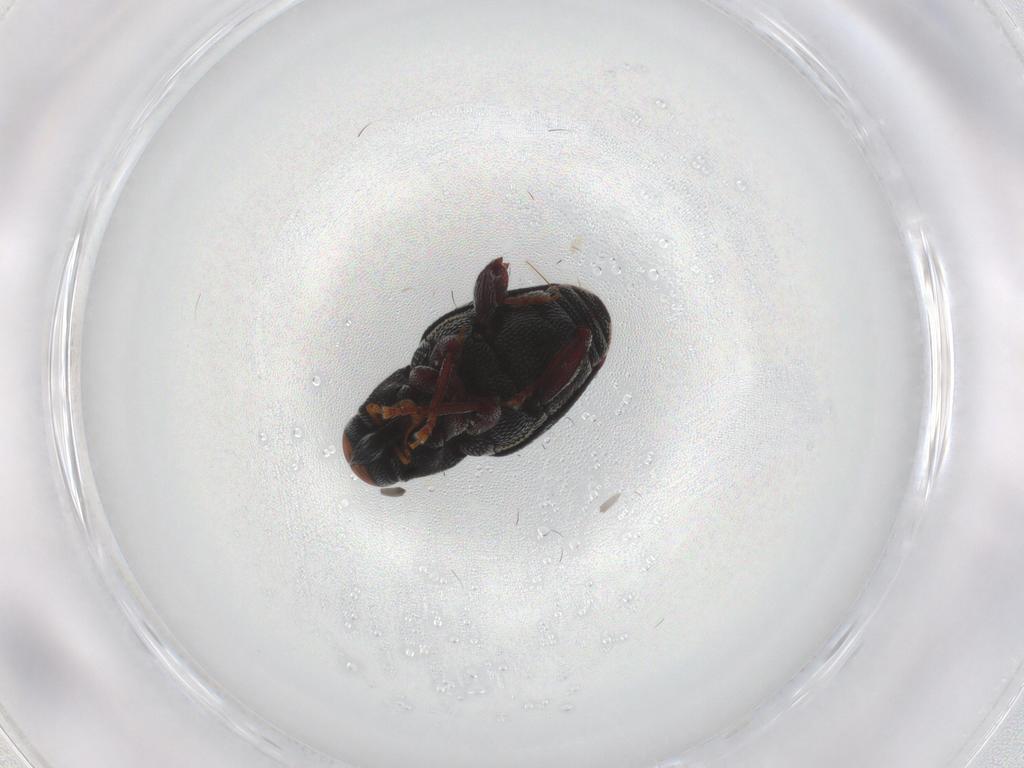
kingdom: Animalia
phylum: Arthropoda
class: Insecta
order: Coleoptera
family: Curculionidae
